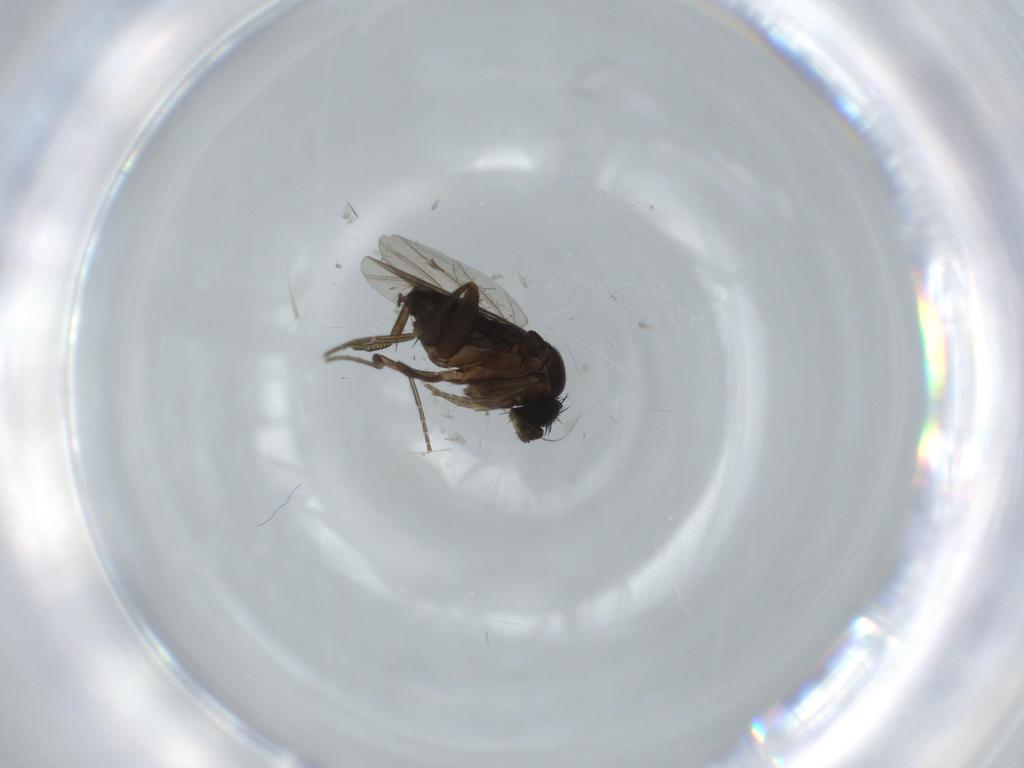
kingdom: Animalia
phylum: Arthropoda
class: Insecta
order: Diptera
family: Phoridae
